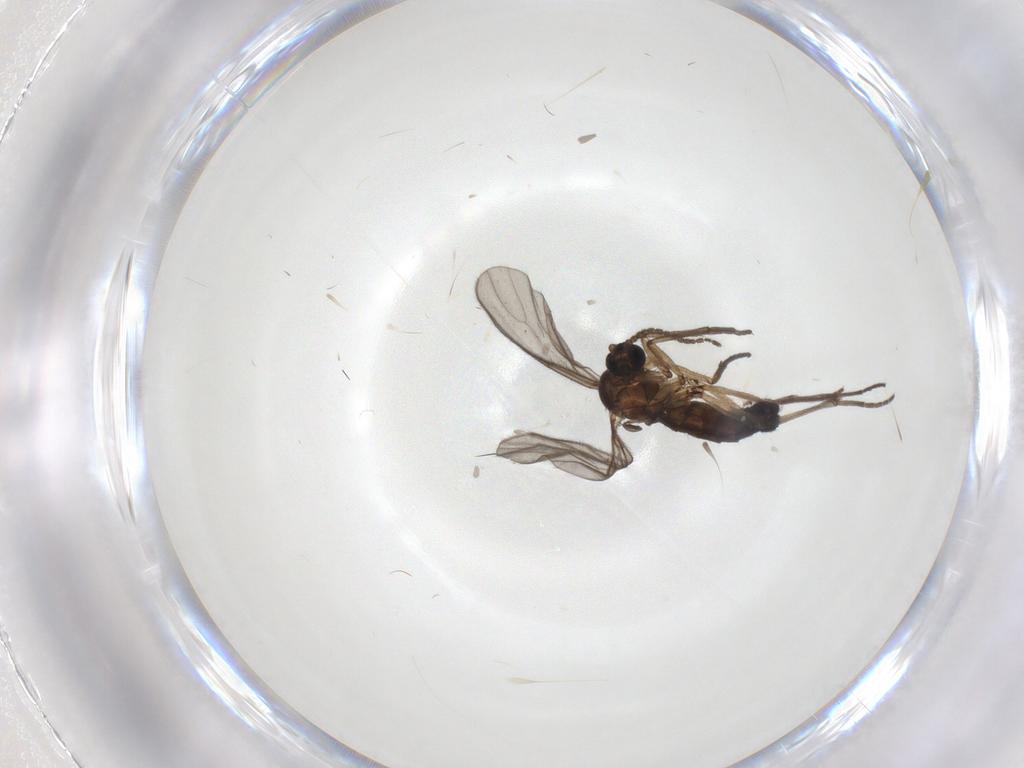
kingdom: Animalia
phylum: Arthropoda
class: Insecta
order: Diptera
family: Sciaridae
